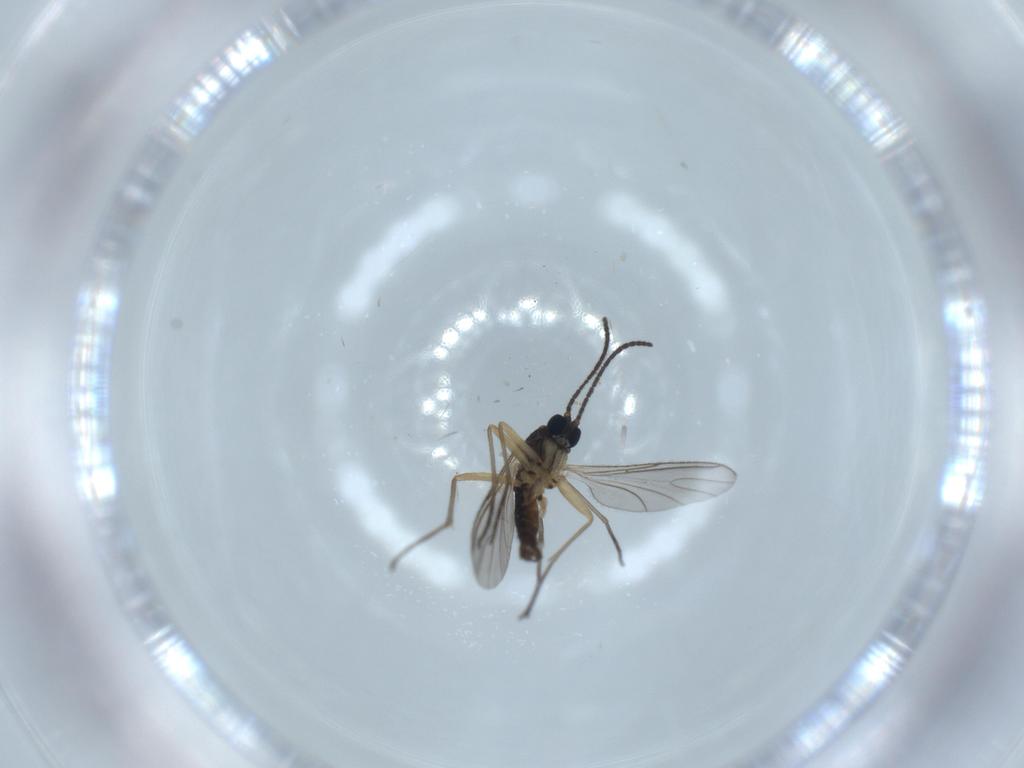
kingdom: Animalia
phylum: Arthropoda
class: Insecta
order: Diptera
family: Sciaridae
